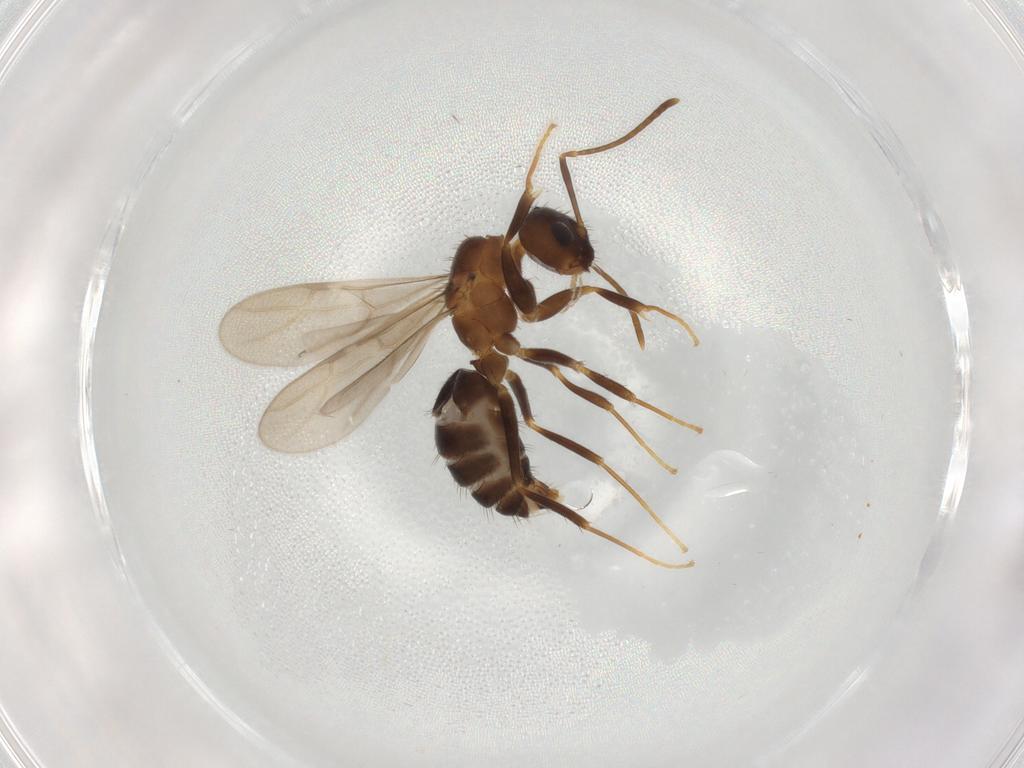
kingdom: Animalia
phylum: Arthropoda
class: Insecta
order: Hymenoptera
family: Formicidae
